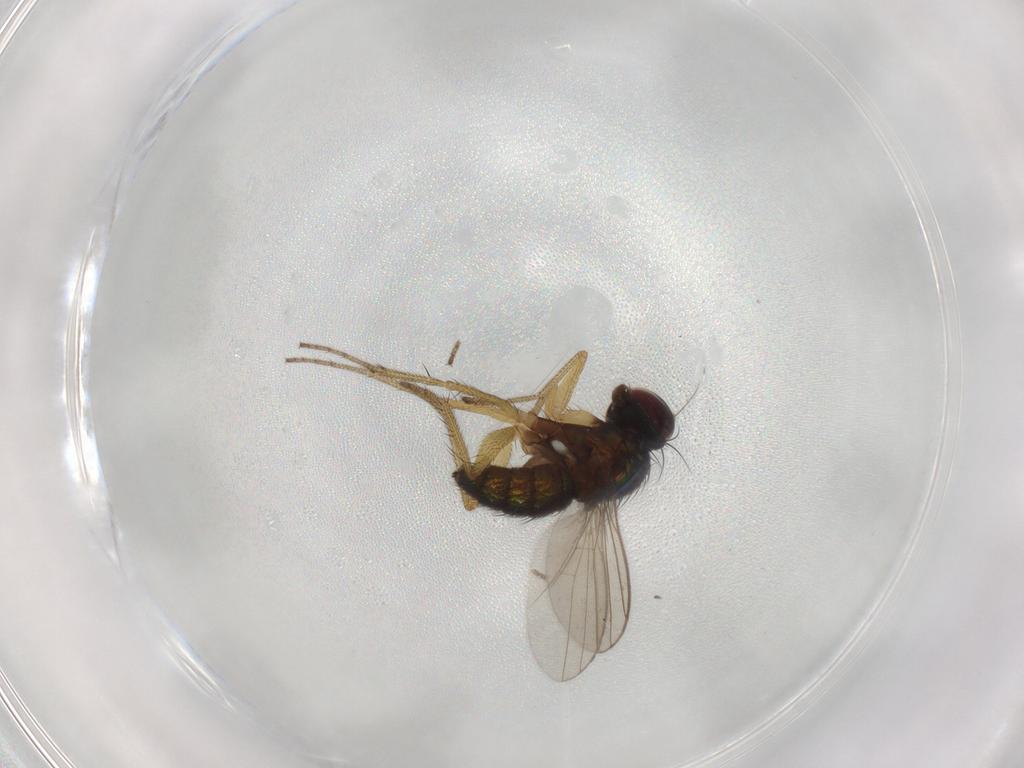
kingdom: Animalia
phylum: Arthropoda
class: Insecta
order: Diptera
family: Dolichopodidae
